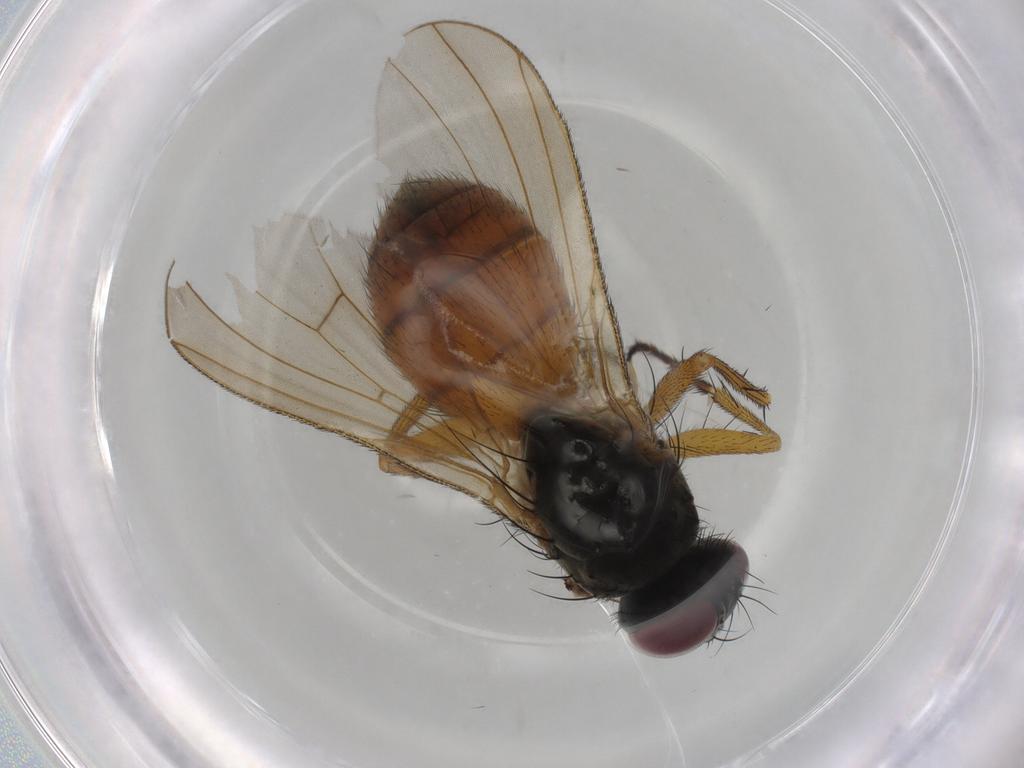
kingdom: Animalia
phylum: Arthropoda
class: Insecta
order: Diptera
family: Muscidae
